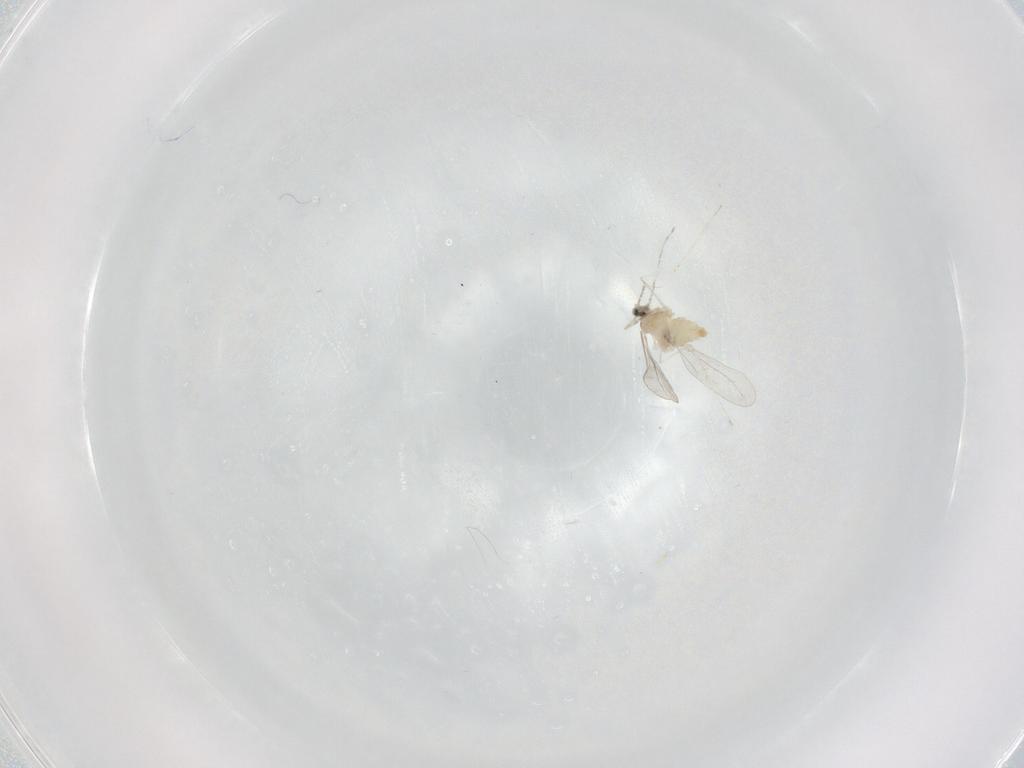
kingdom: Animalia
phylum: Arthropoda
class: Insecta
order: Diptera
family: Cecidomyiidae
